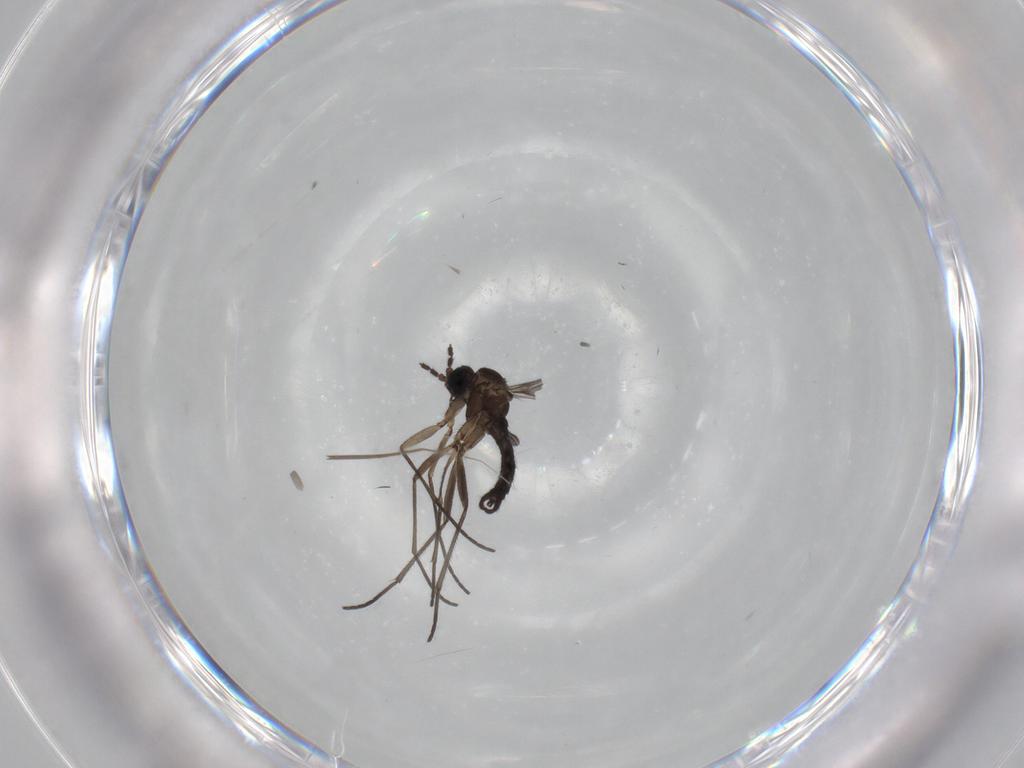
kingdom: Animalia
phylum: Arthropoda
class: Insecta
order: Diptera
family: Sciaridae
